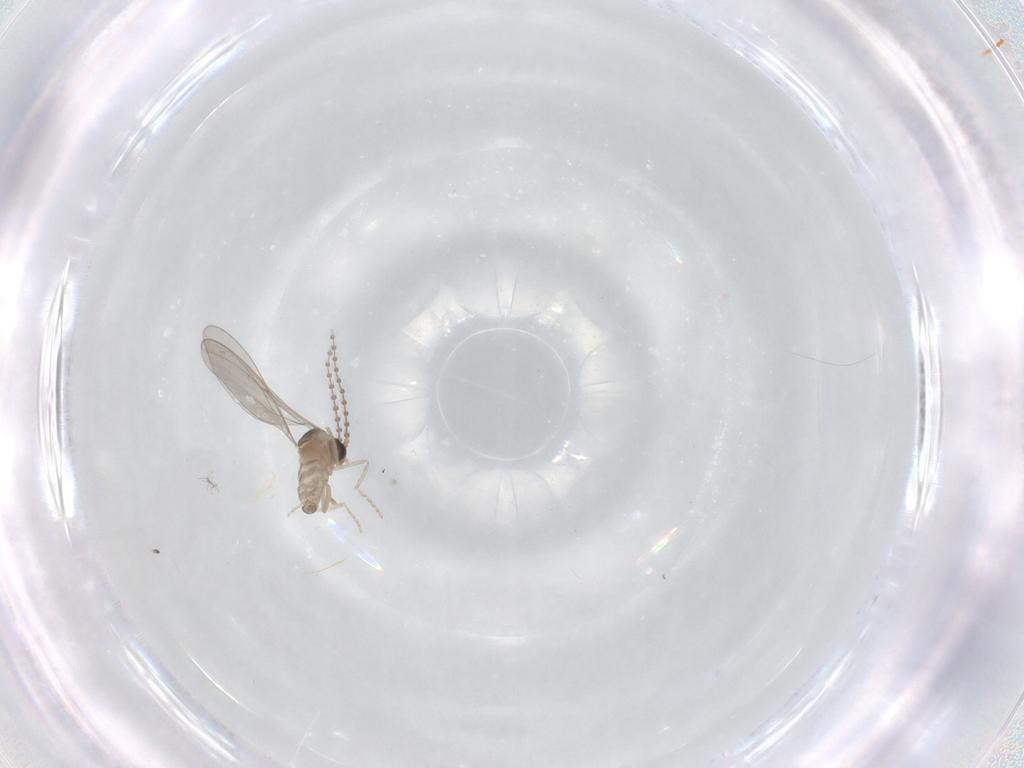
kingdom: Animalia
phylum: Arthropoda
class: Insecta
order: Diptera
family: Cecidomyiidae
